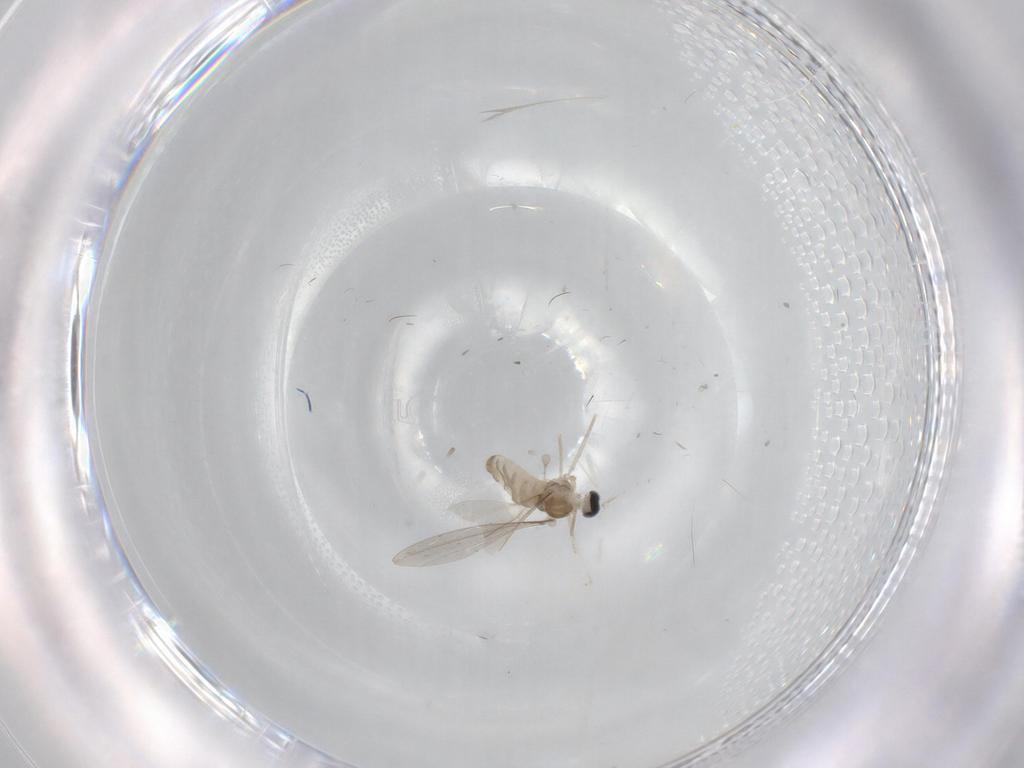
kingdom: Animalia
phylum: Arthropoda
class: Insecta
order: Diptera
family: Cecidomyiidae
